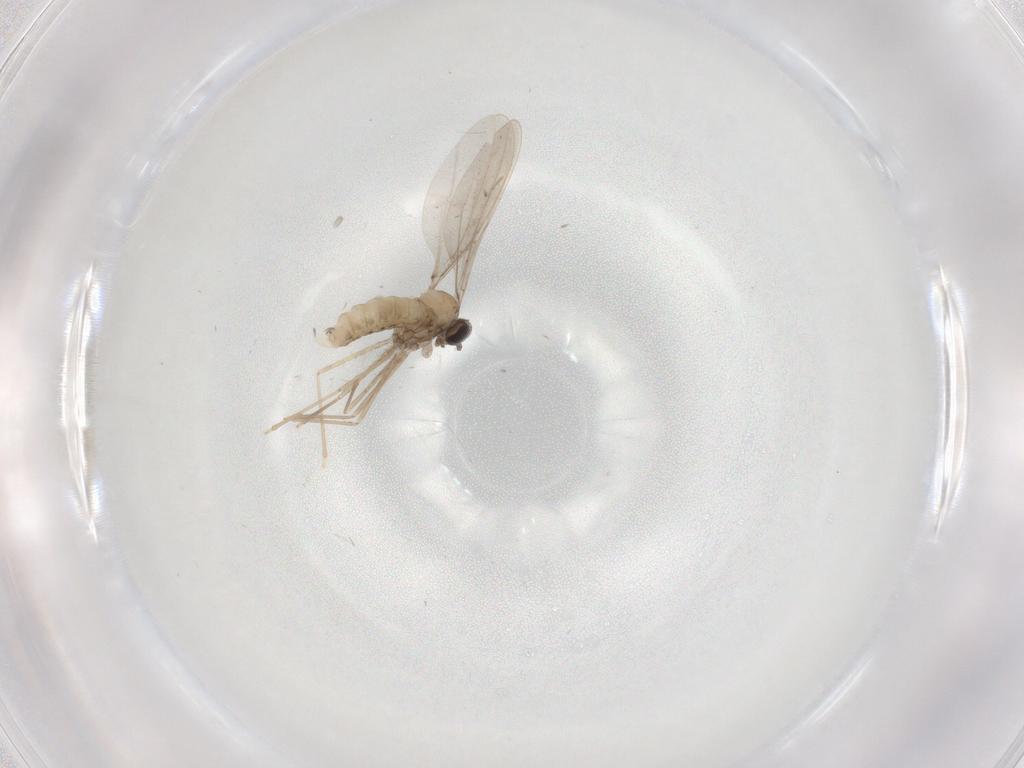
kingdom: Animalia
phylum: Arthropoda
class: Insecta
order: Diptera
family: Cecidomyiidae
